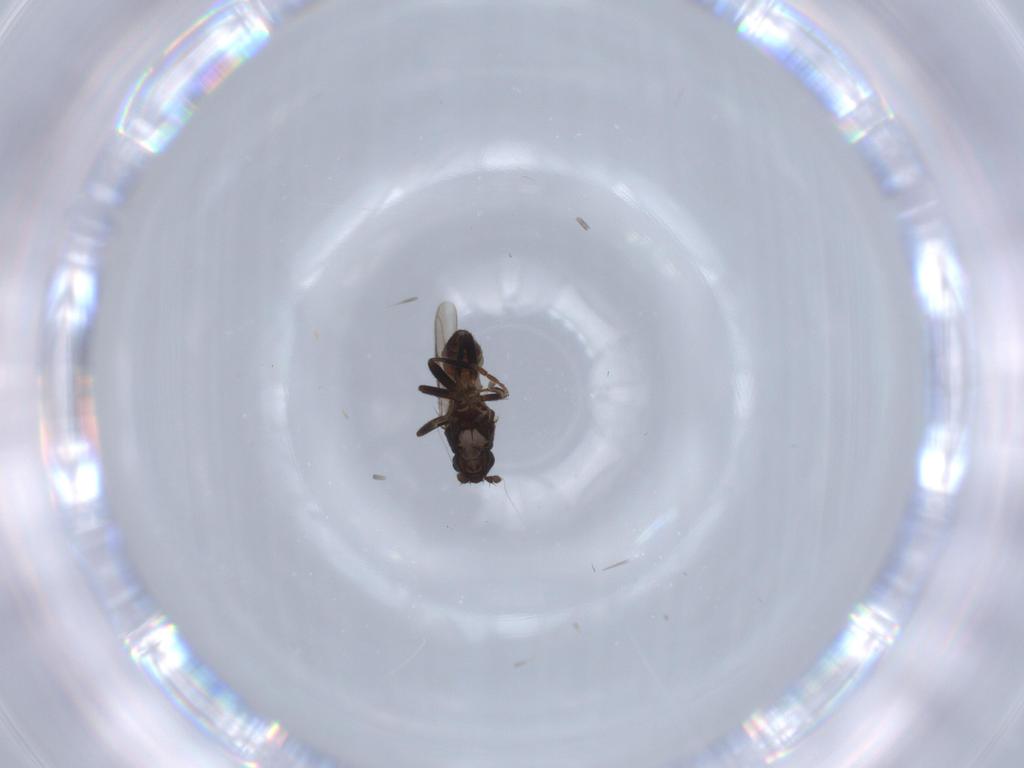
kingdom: Animalia
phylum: Arthropoda
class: Insecta
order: Diptera
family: Sphaeroceridae
